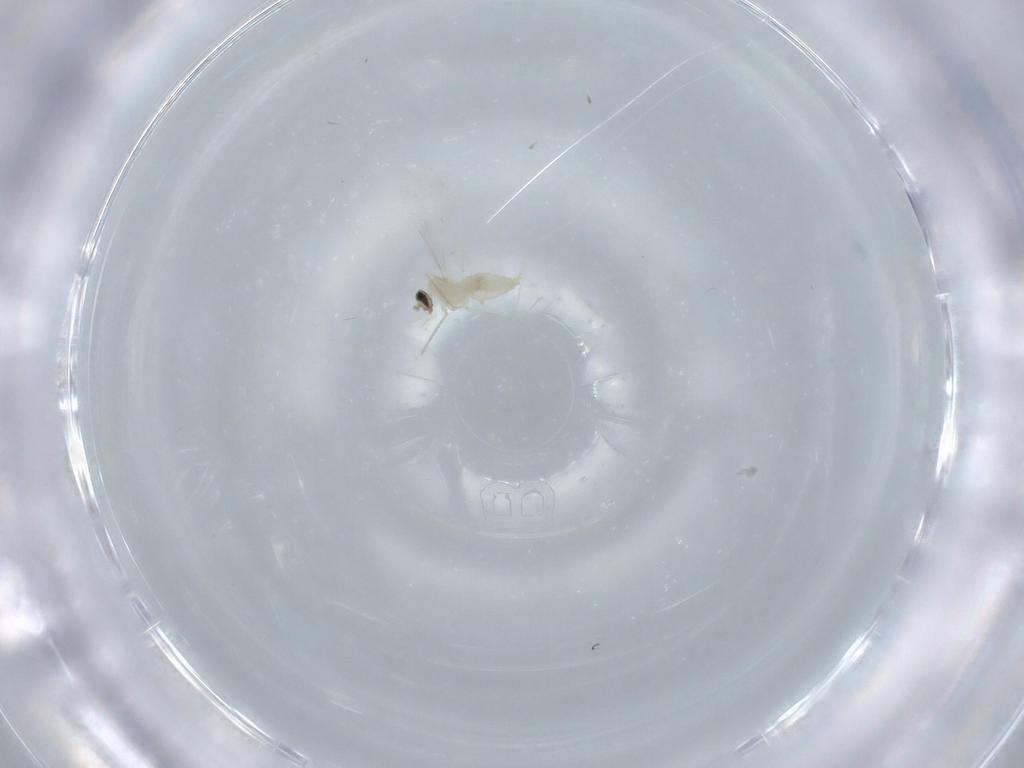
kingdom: Animalia
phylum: Arthropoda
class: Insecta
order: Diptera
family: Cecidomyiidae
